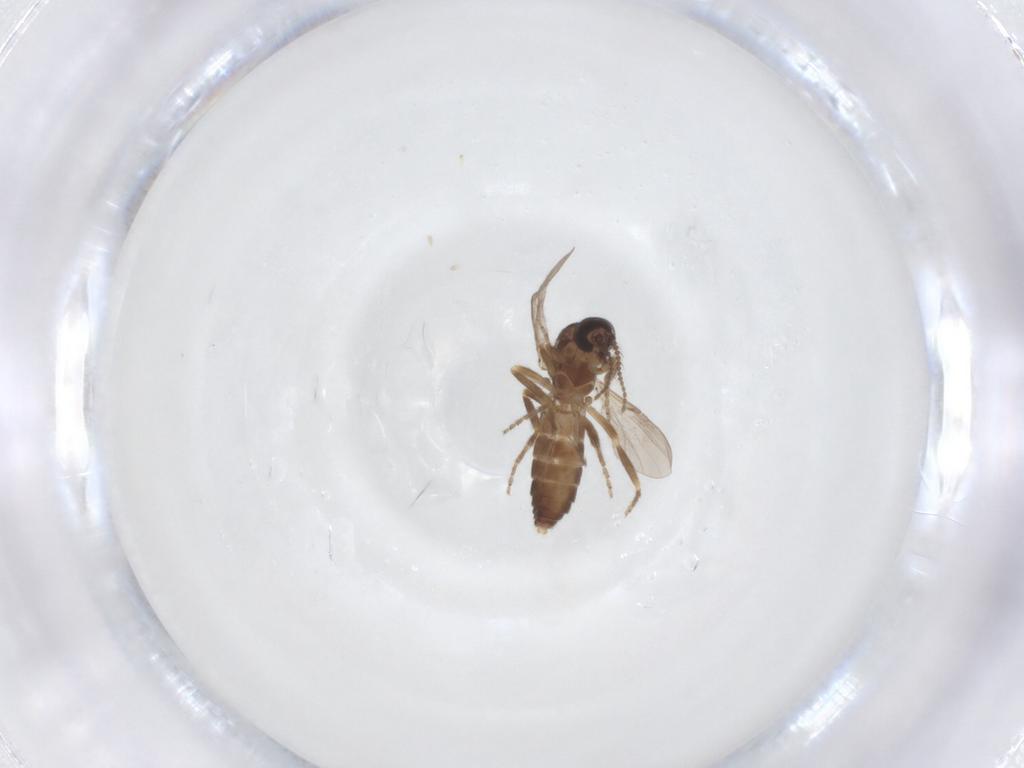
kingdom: Animalia
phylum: Arthropoda
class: Insecta
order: Diptera
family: Ceratopogonidae
